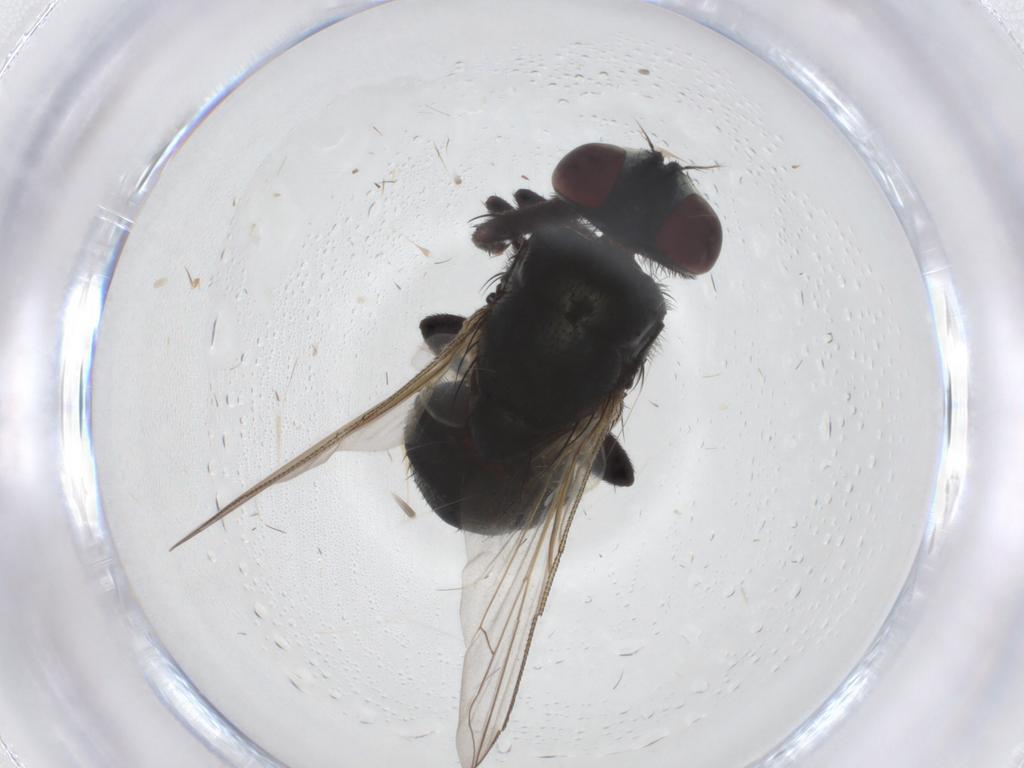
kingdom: Animalia
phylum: Arthropoda
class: Insecta
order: Diptera
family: Calliphoridae
